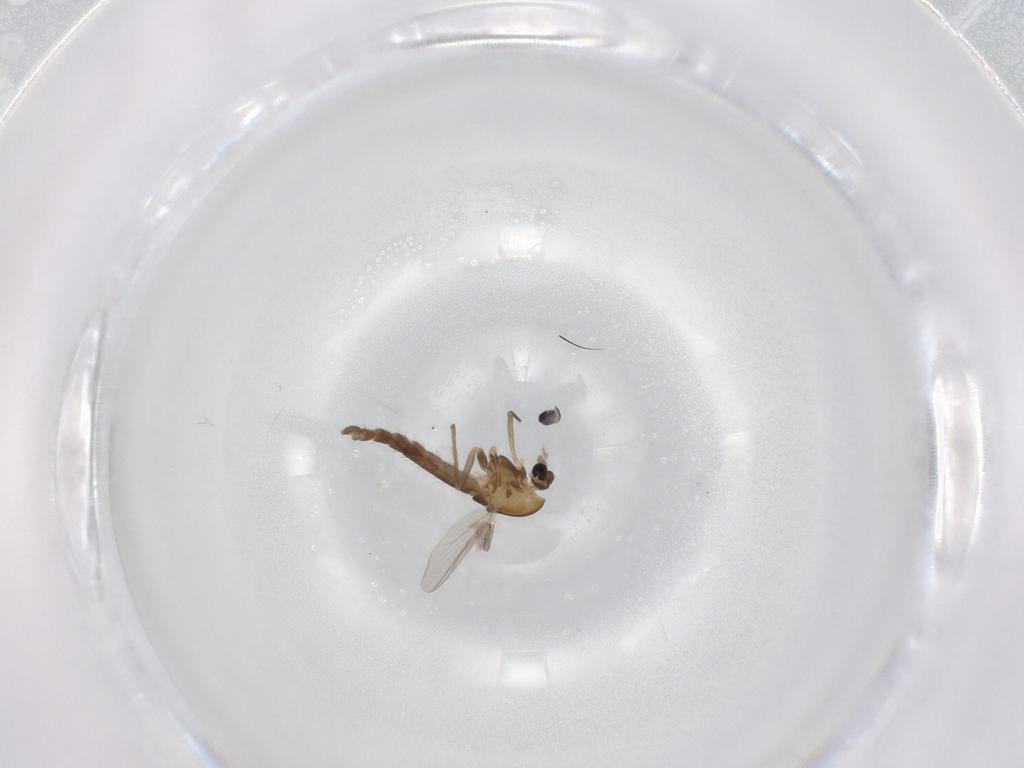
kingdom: Animalia
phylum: Arthropoda
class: Insecta
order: Diptera
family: Chironomidae
